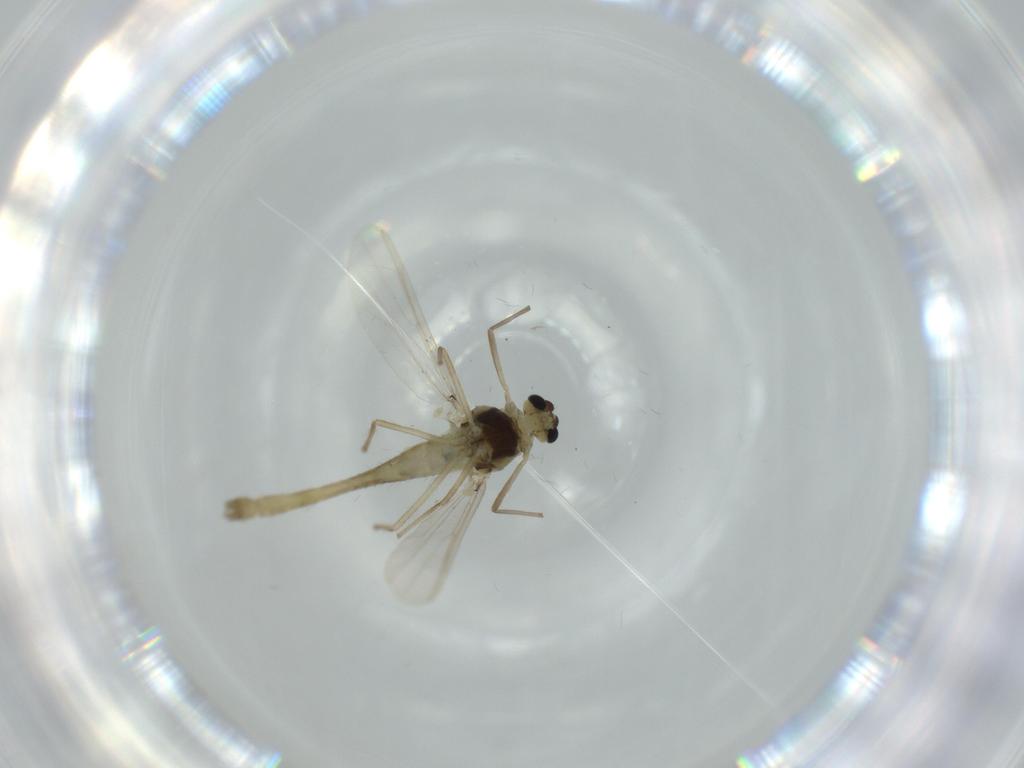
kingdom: Animalia
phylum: Arthropoda
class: Insecta
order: Diptera
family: Chironomidae
